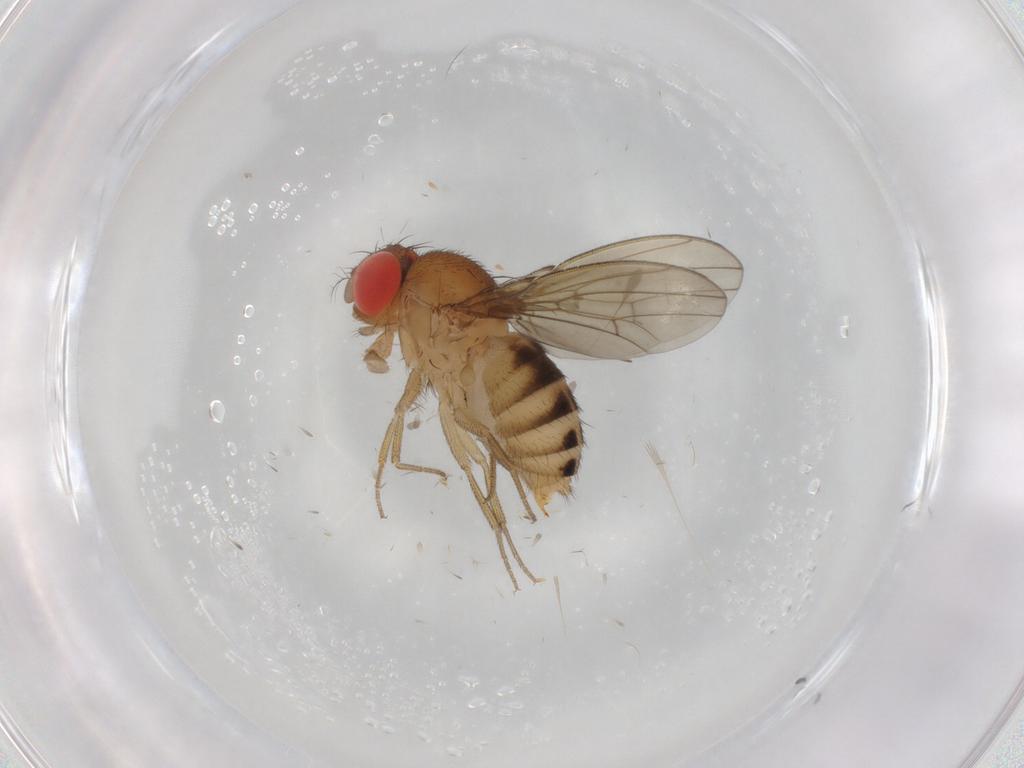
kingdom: Animalia
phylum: Arthropoda
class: Insecta
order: Diptera
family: Drosophilidae
